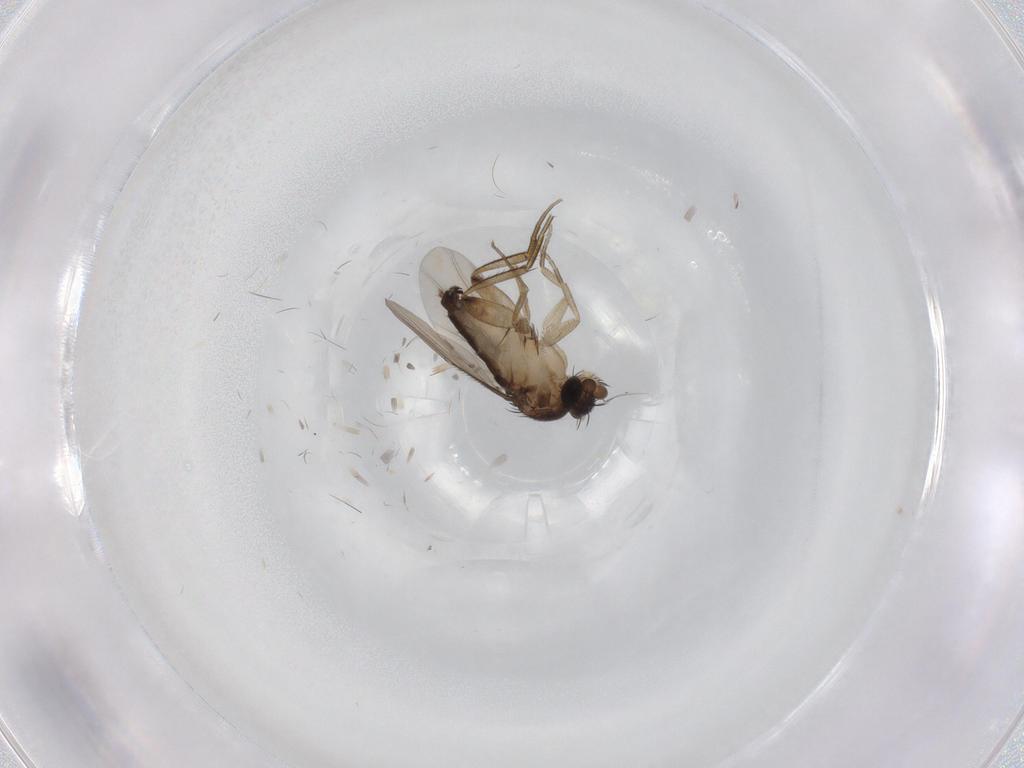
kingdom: Animalia
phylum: Arthropoda
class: Insecta
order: Diptera
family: Phoridae
